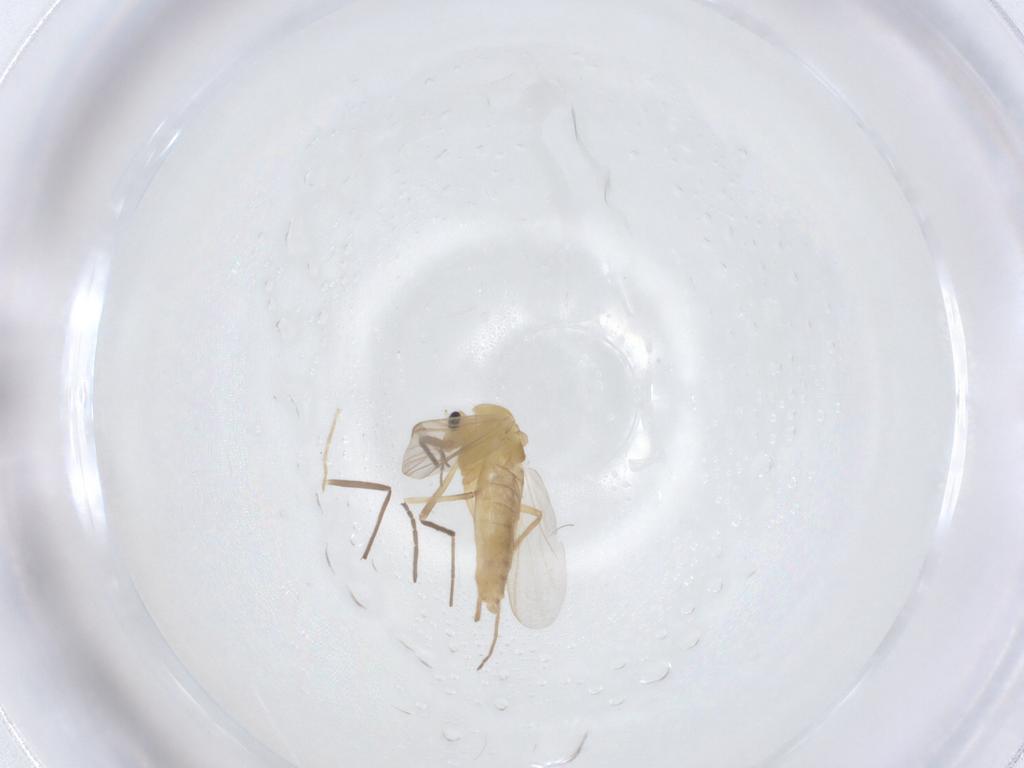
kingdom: Animalia
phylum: Arthropoda
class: Insecta
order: Diptera
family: Chironomidae
